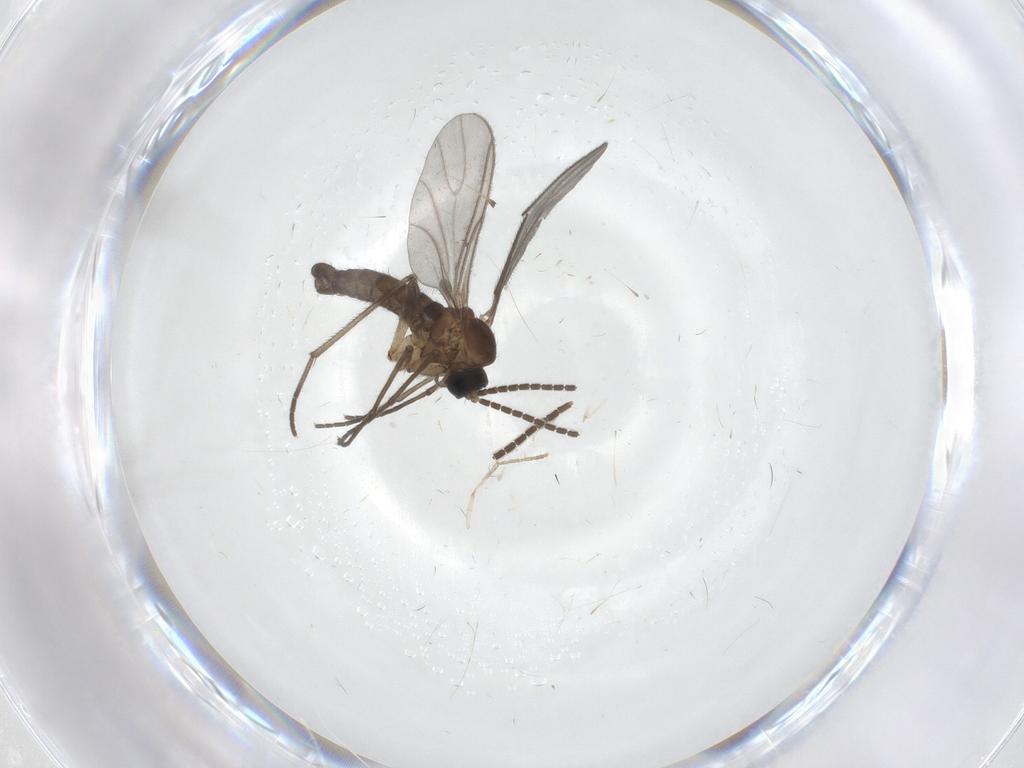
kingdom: Animalia
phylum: Arthropoda
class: Insecta
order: Diptera
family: Sciaridae
